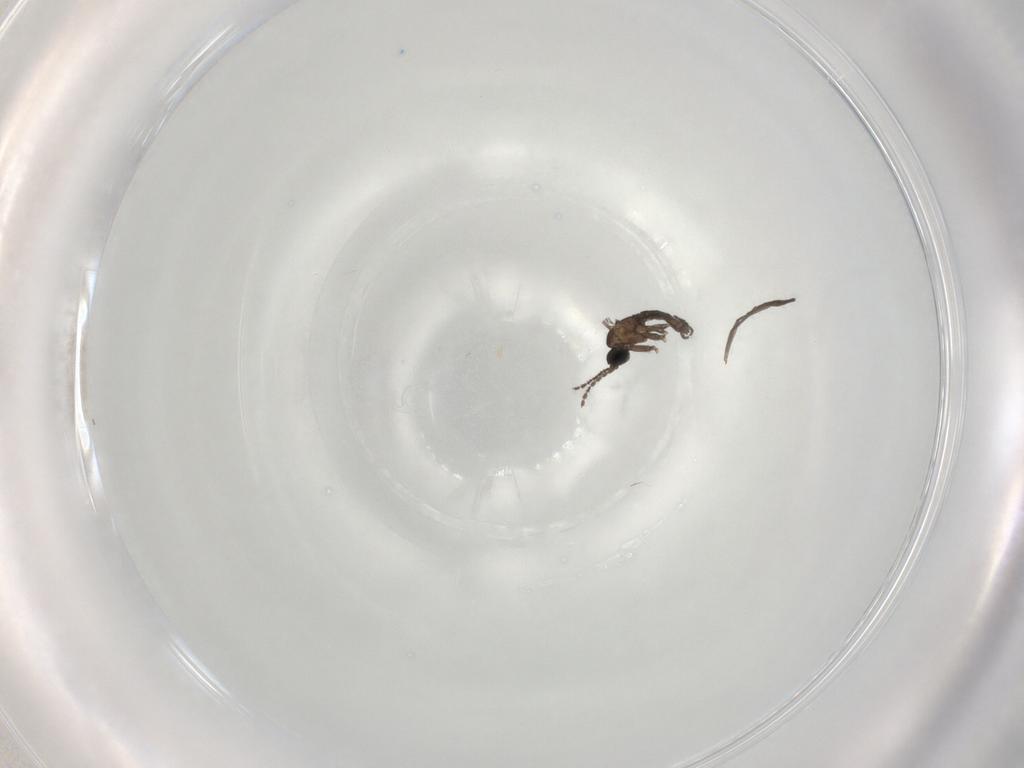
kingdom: Animalia
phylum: Arthropoda
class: Insecta
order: Diptera
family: Sciaridae
